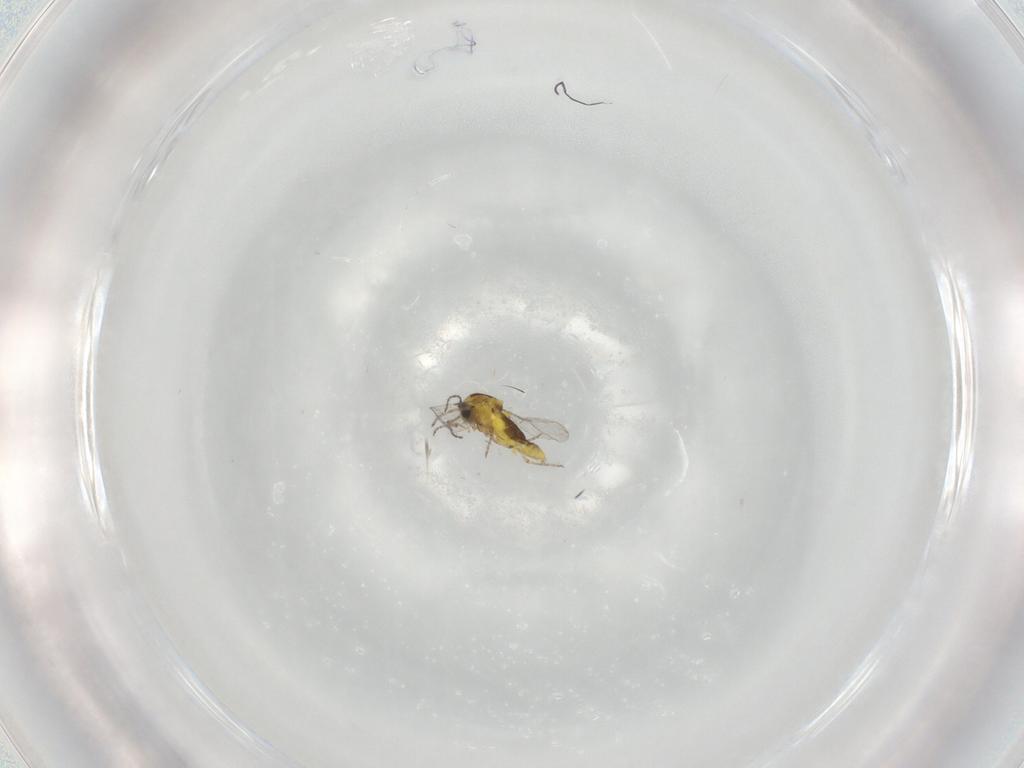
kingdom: Animalia
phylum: Arthropoda
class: Insecta
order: Diptera
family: Ceratopogonidae
